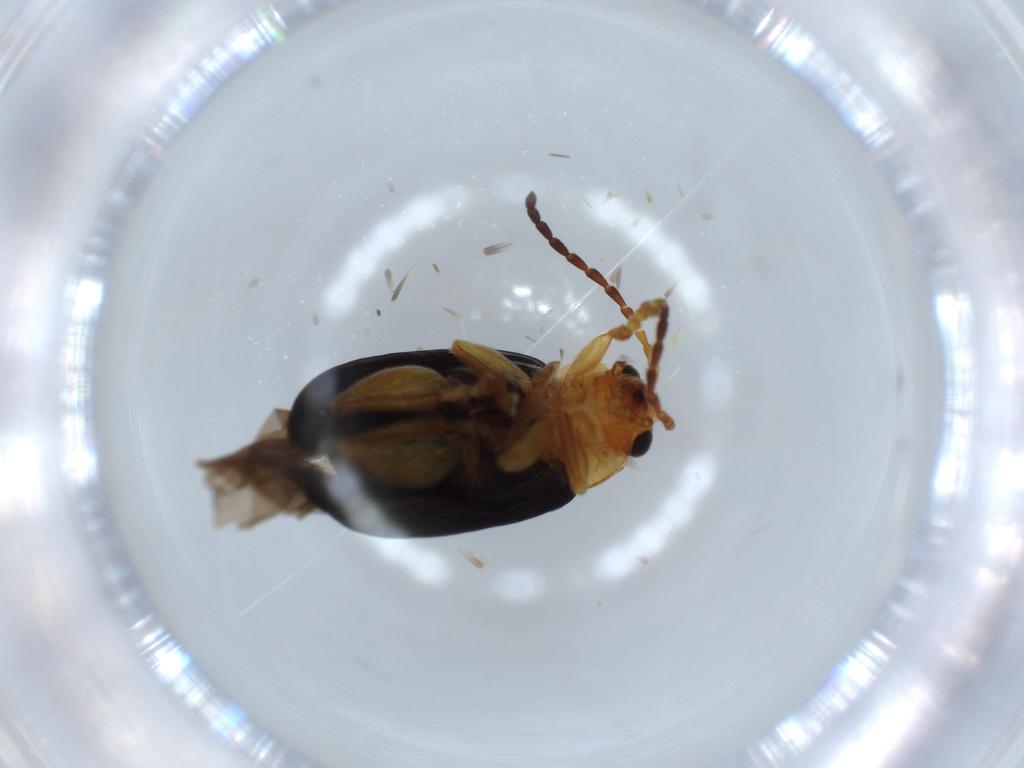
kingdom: Animalia
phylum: Arthropoda
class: Insecta
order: Coleoptera
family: Chrysomelidae
